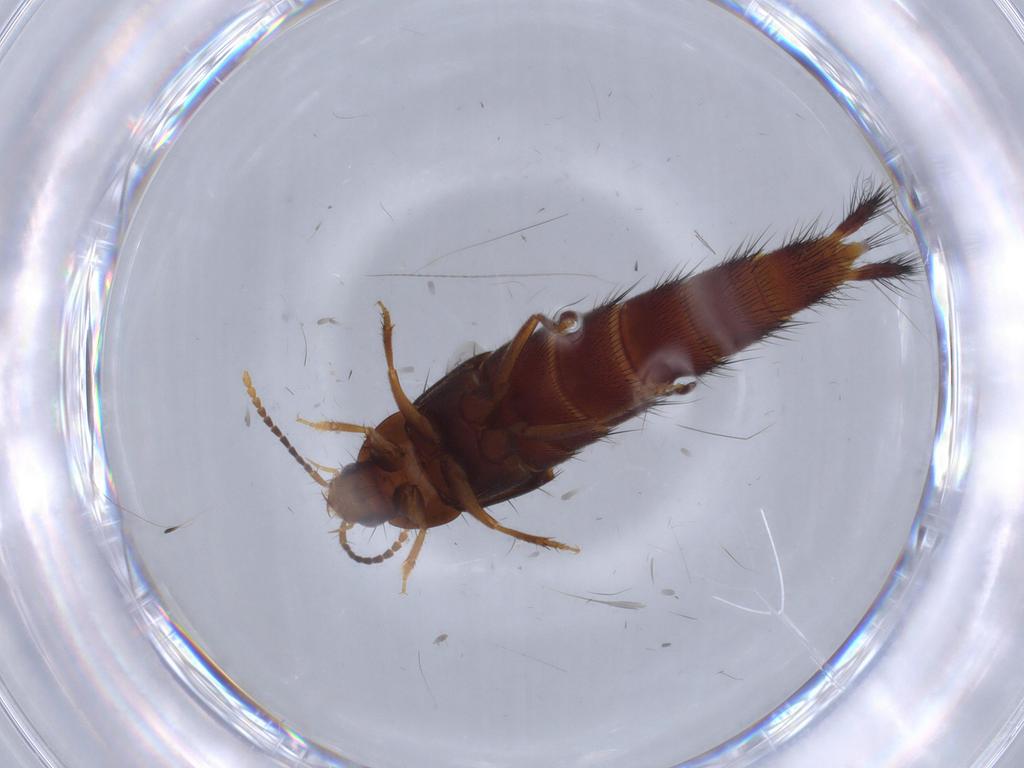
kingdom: Animalia
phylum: Arthropoda
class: Insecta
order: Coleoptera
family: Staphylinidae
